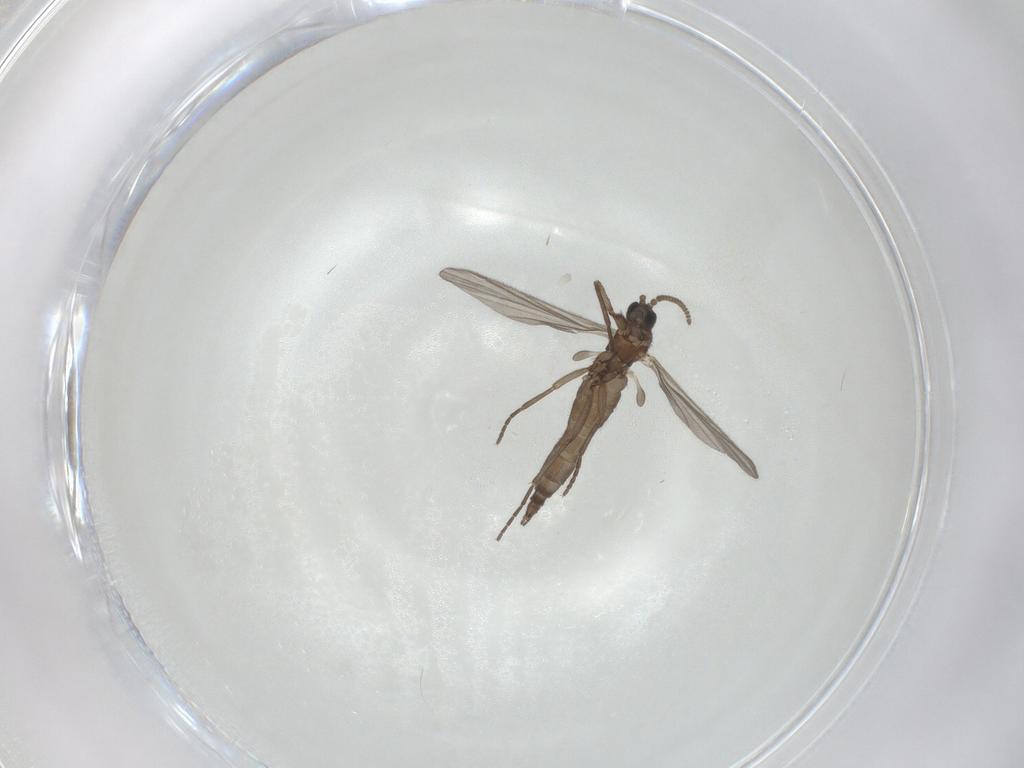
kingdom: Animalia
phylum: Arthropoda
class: Insecta
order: Diptera
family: Sciaridae
